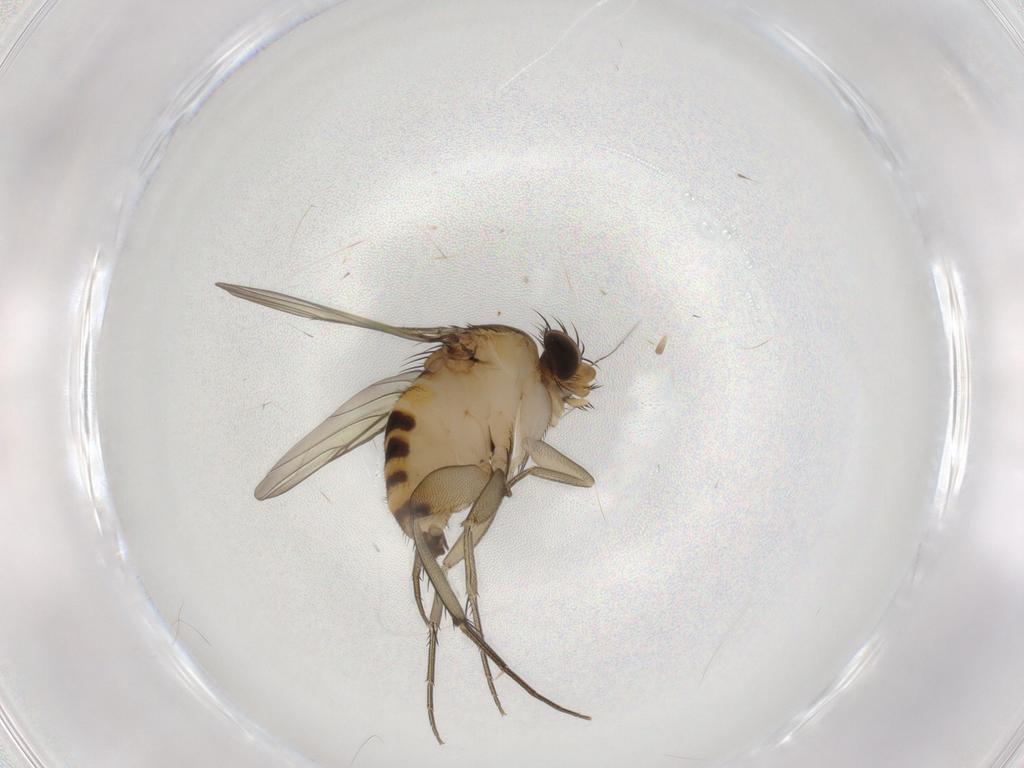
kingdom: Animalia
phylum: Arthropoda
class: Insecta
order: Diptera
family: Phoridae
